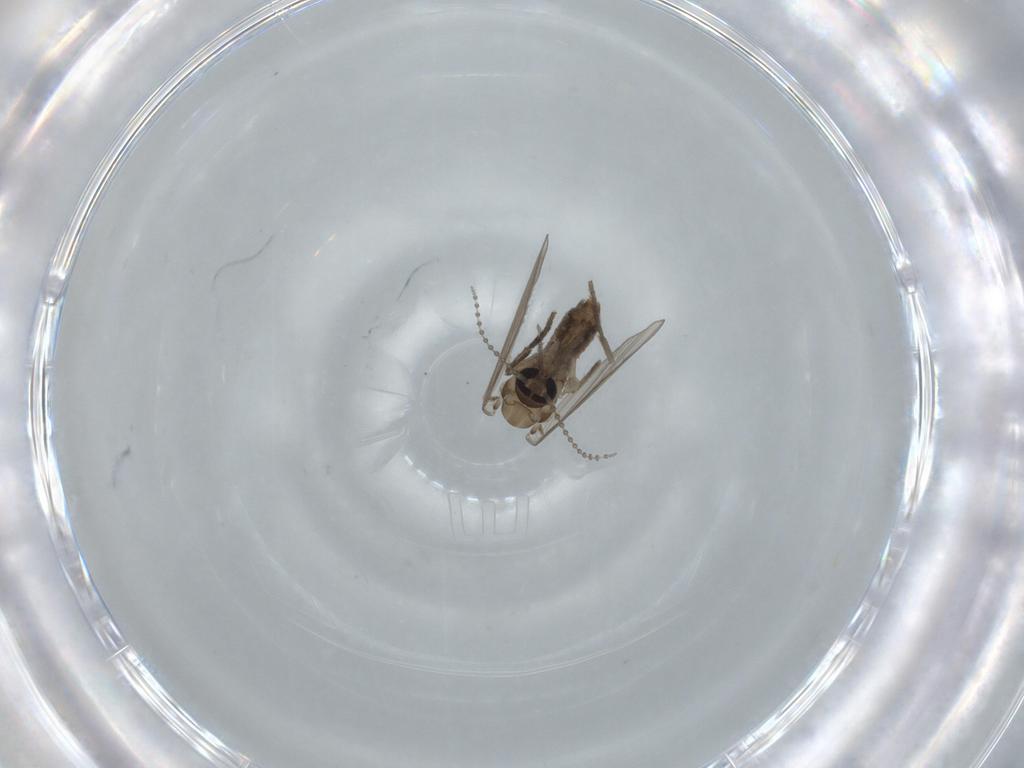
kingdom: Animalia
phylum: Arthropoda
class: Insecta
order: Diptera
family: Psychodidae
